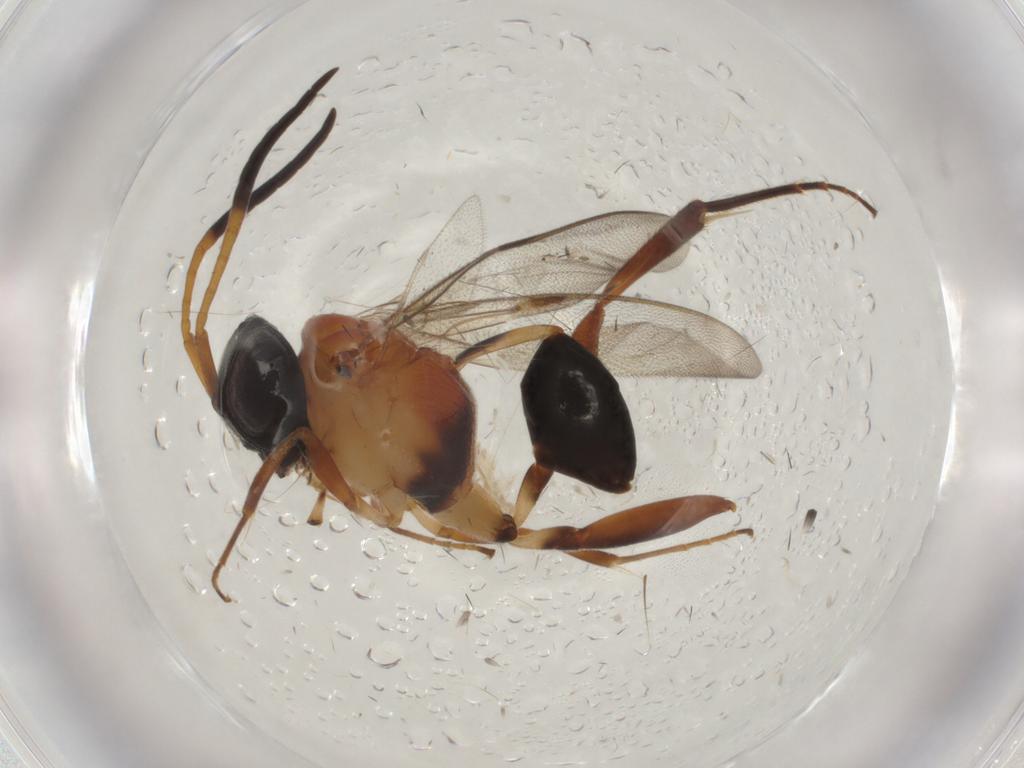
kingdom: Animalia
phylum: Arthropoda
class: Insecta
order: Hymenoptera
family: Evaniidae
